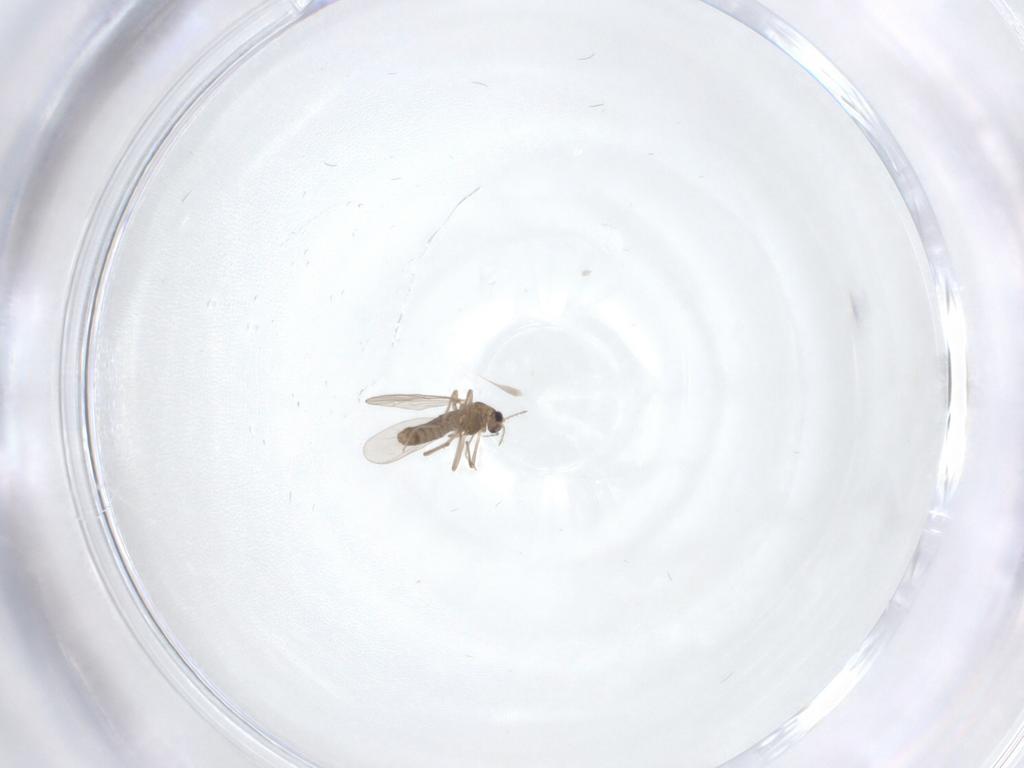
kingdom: Animalia
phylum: Arthropoda
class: Insecta
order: Diptera
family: Chironomidae
